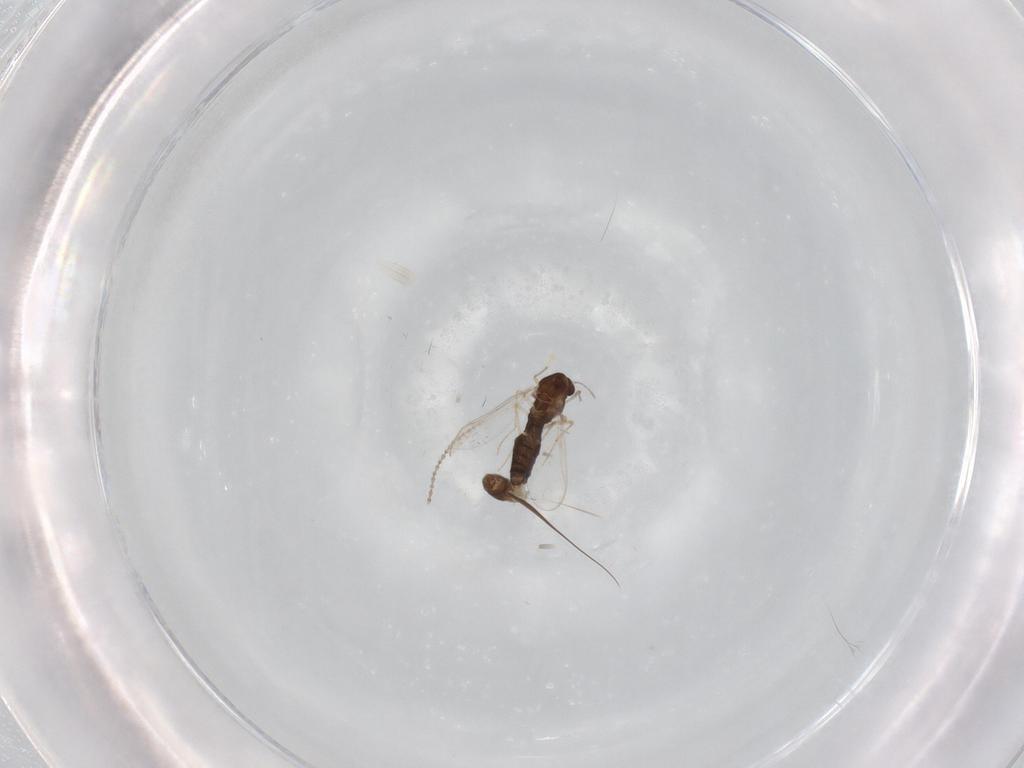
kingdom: Animalia
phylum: Arthropoda
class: Insecta
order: Diptera
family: Chironomidae
